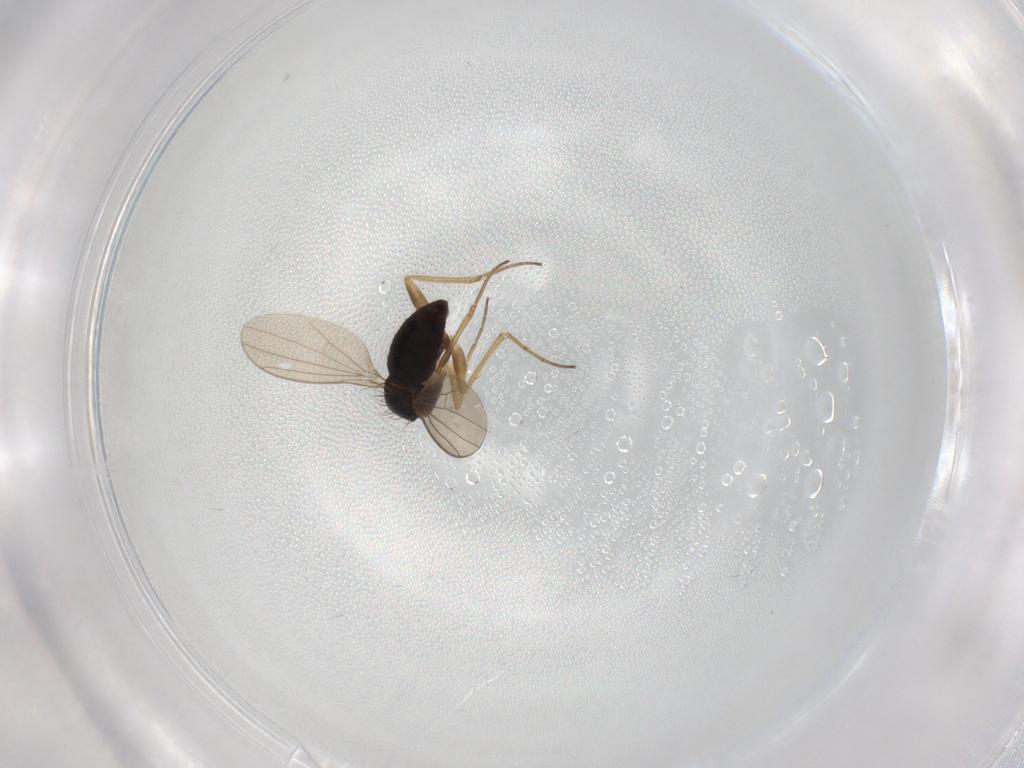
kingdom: Animalia
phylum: Arthropoda
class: Insecta
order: Diptera
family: Dolichopodidae
